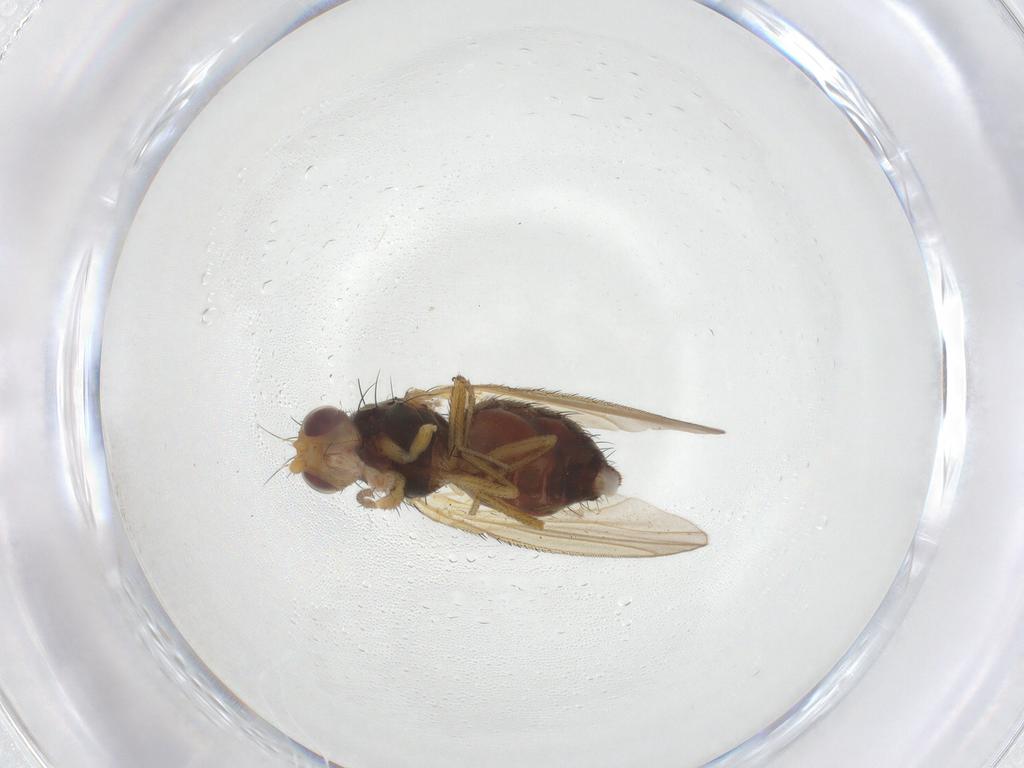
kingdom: Animalia
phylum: Arthropoda
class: Insecta
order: Diptera
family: Heleomyzidae
